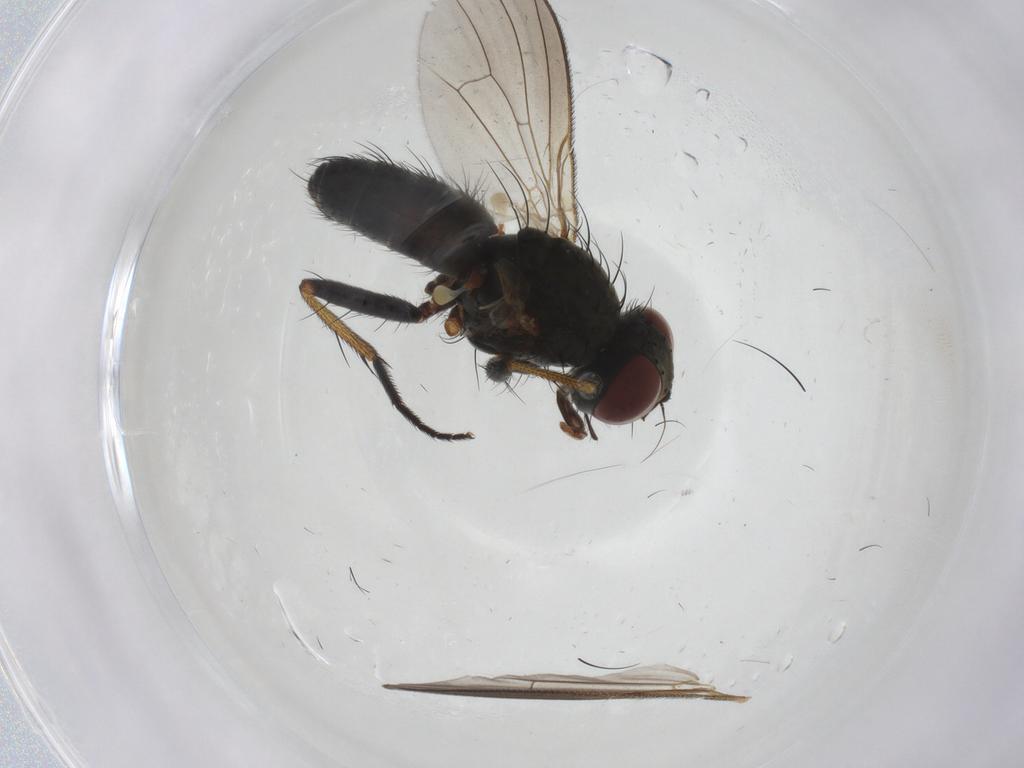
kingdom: Animalia
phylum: Arthropoda
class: Insecta
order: Diptera
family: Muscidae
